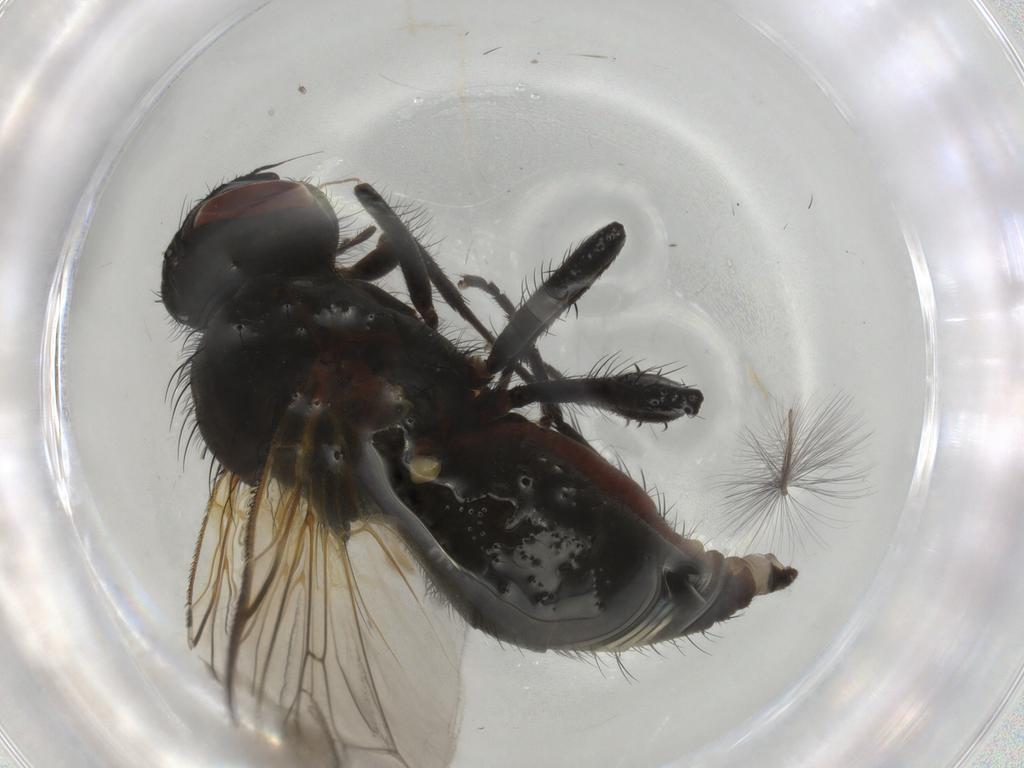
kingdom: Animalia
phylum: Arthropoda
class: Insecta
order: Diptera
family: Anthomyiidae
